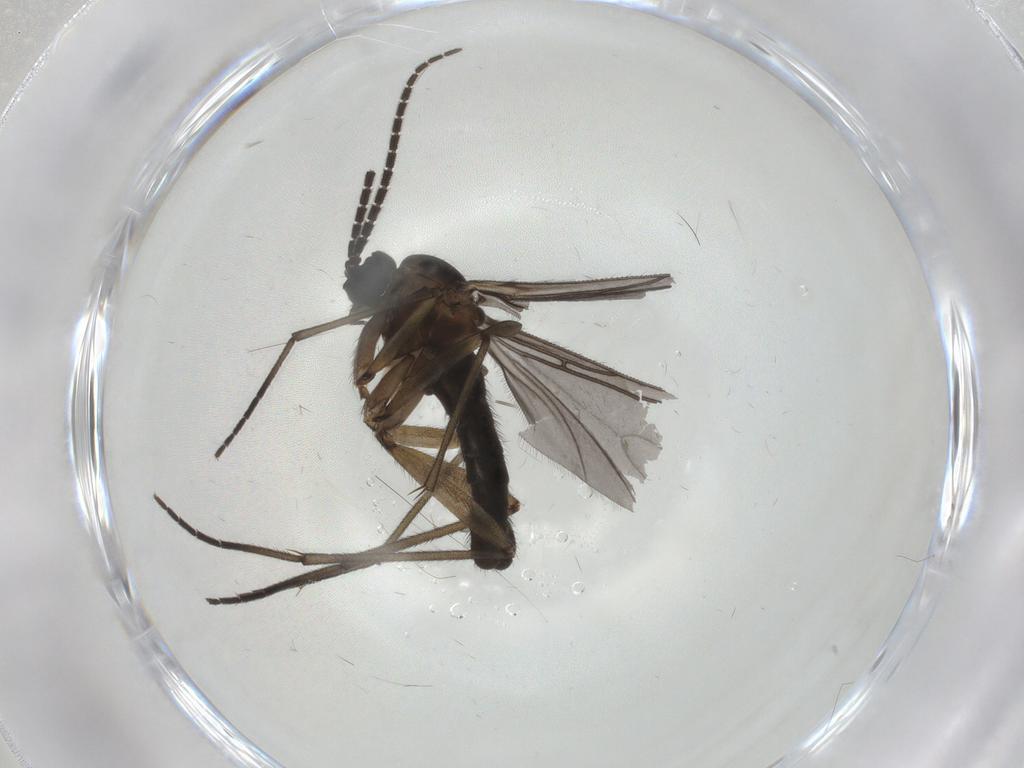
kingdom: Animalia
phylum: Arthropoda
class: Insecta
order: Diptera
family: Sciaridae
